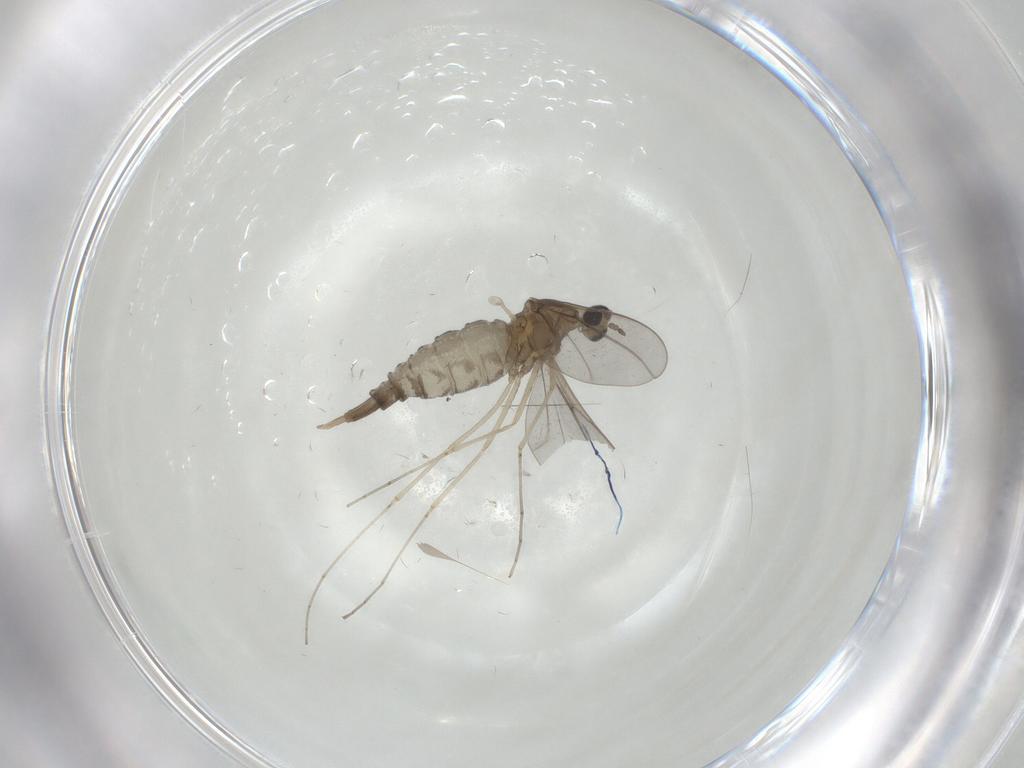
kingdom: Animalia
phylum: Arthropoda
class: Insecta
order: Diptera
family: Cecidomyiidae
